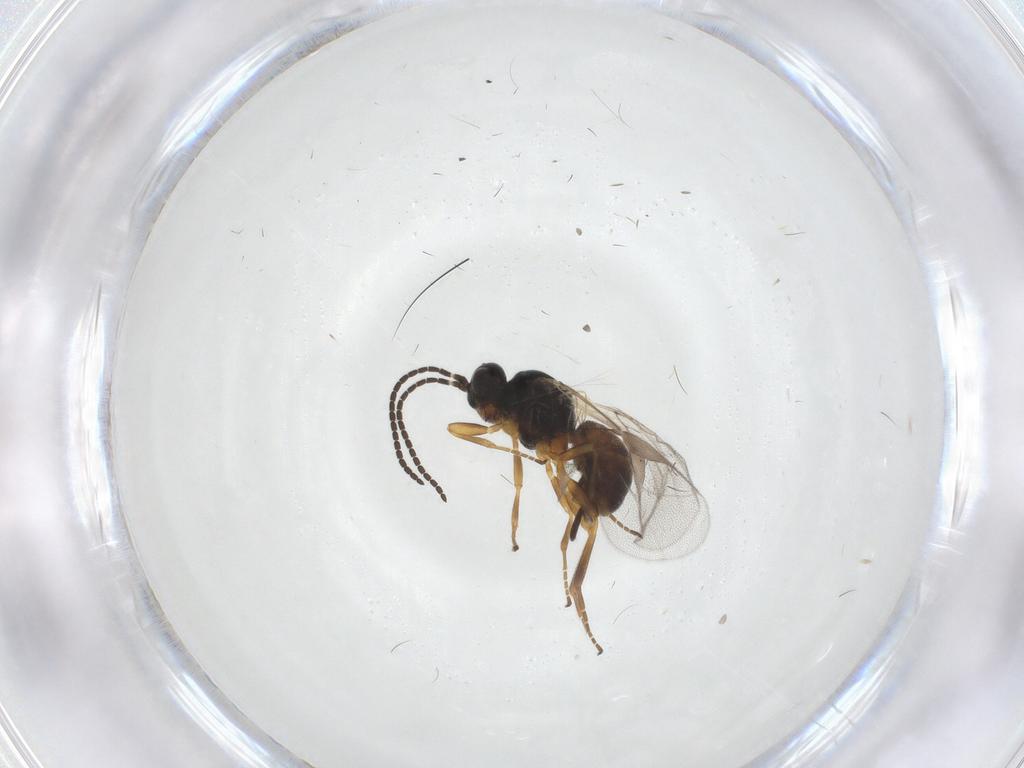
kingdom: Animalia
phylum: Arthropoda
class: Insecta
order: Hymenoptera
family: Braconidae
